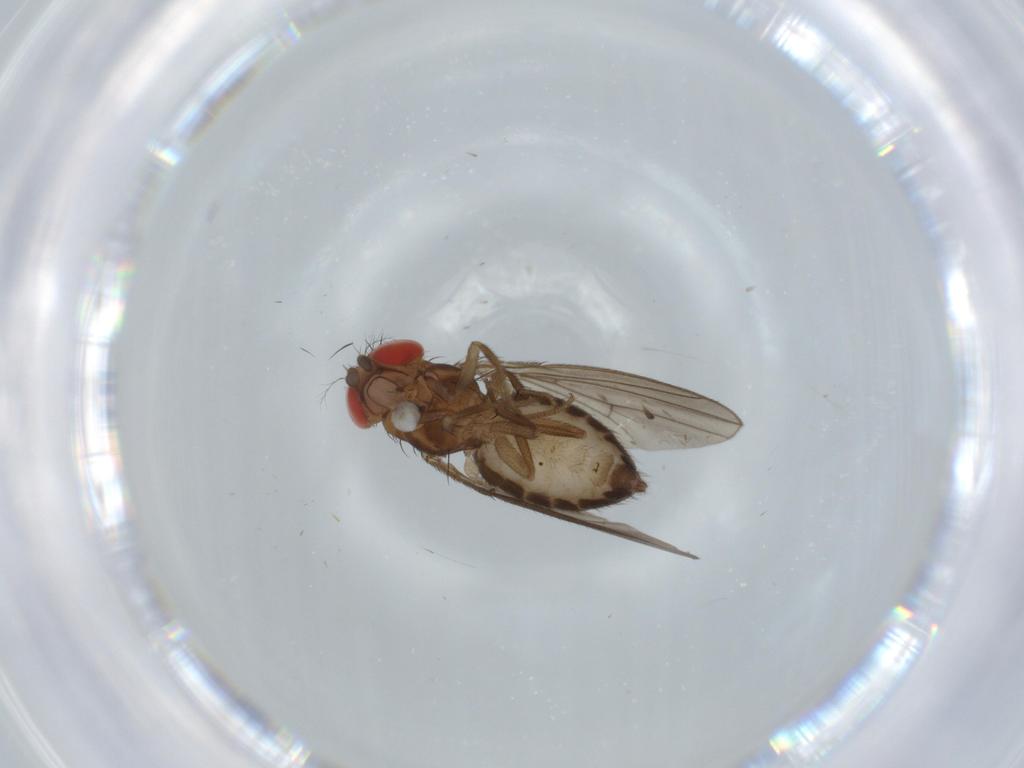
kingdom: Animalia
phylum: Arthropoda
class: Insecta
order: Diptera
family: Drosophilidae
